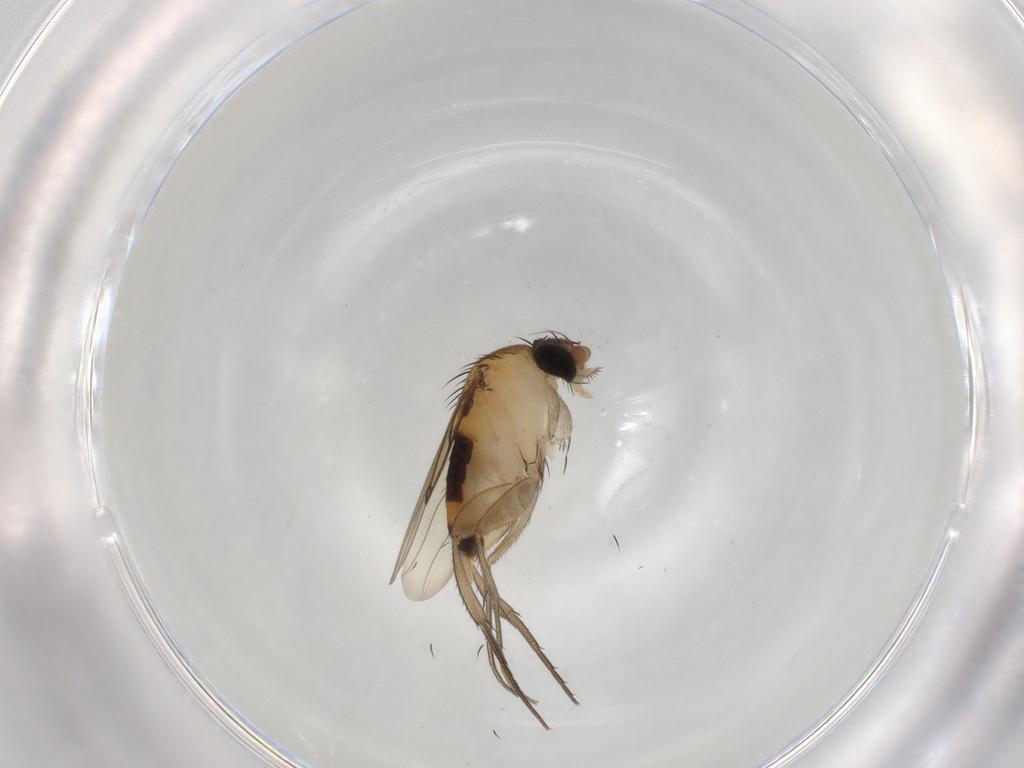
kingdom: Animalia
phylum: Arthropoda
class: Insecta
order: Diptera
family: Phoridae
